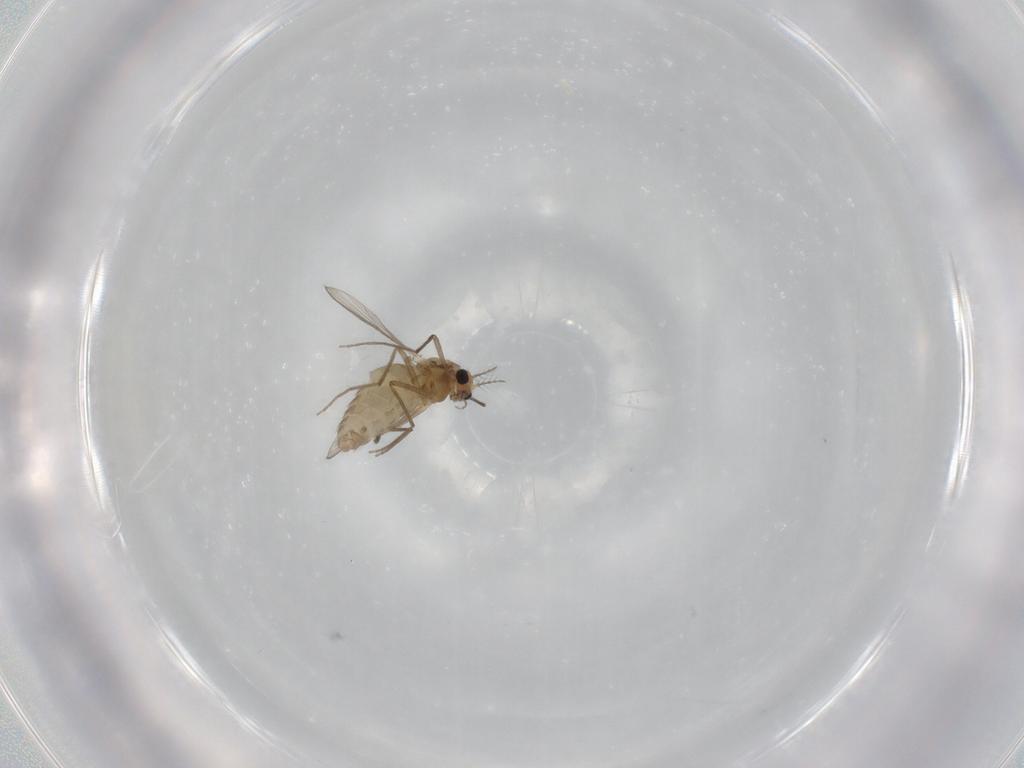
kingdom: Animalia
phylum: Arthropoda
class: Insecta
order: Diptera
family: Chironomidae
